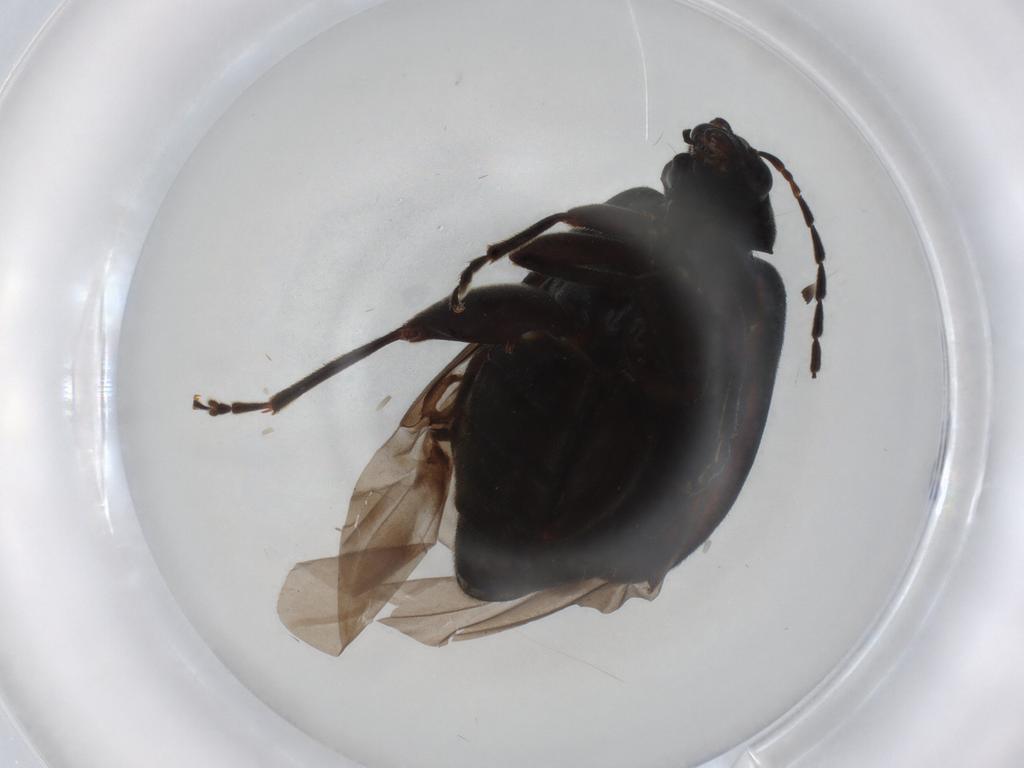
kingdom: Animalia
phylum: Arthropoda
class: Insecta
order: Coleoptera
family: Chrysomelidae
